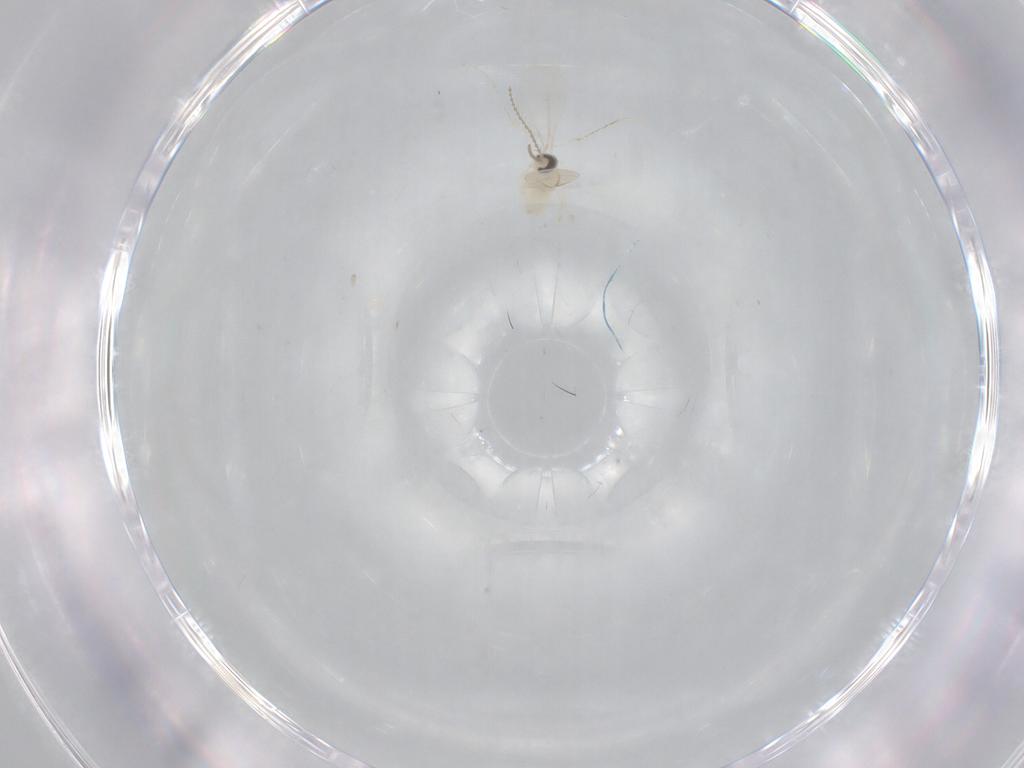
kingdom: Animalia
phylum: Arthropoda
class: Insecta
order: Diptera
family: Cecidomyiidae
